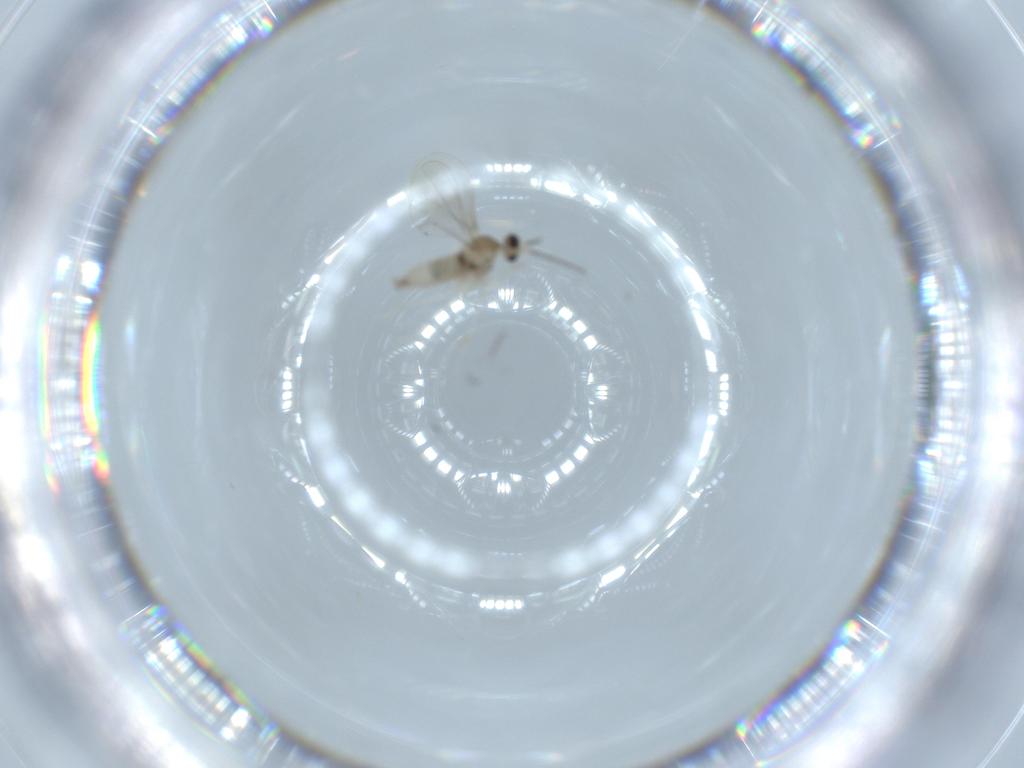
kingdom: Animalia
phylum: Arthropoda
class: Insecta
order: Diptera
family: Cecidomyiidae
